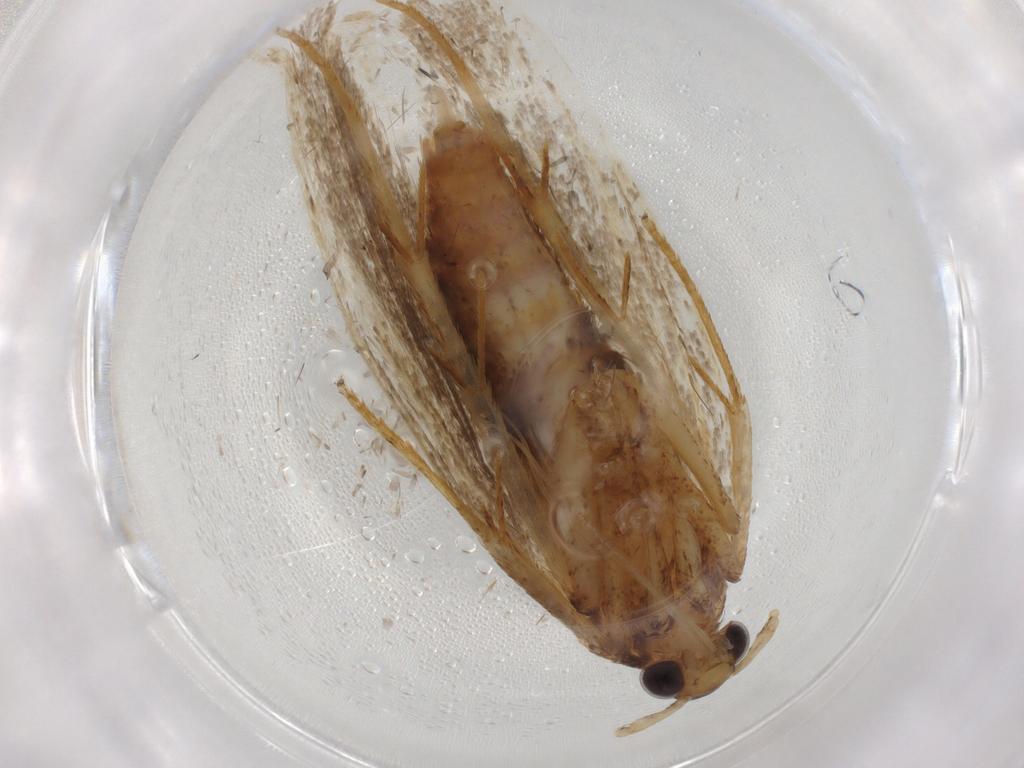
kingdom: Animalia
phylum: Arthropoda
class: Insecta
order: Lepidoptera
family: Lecithoceridae
